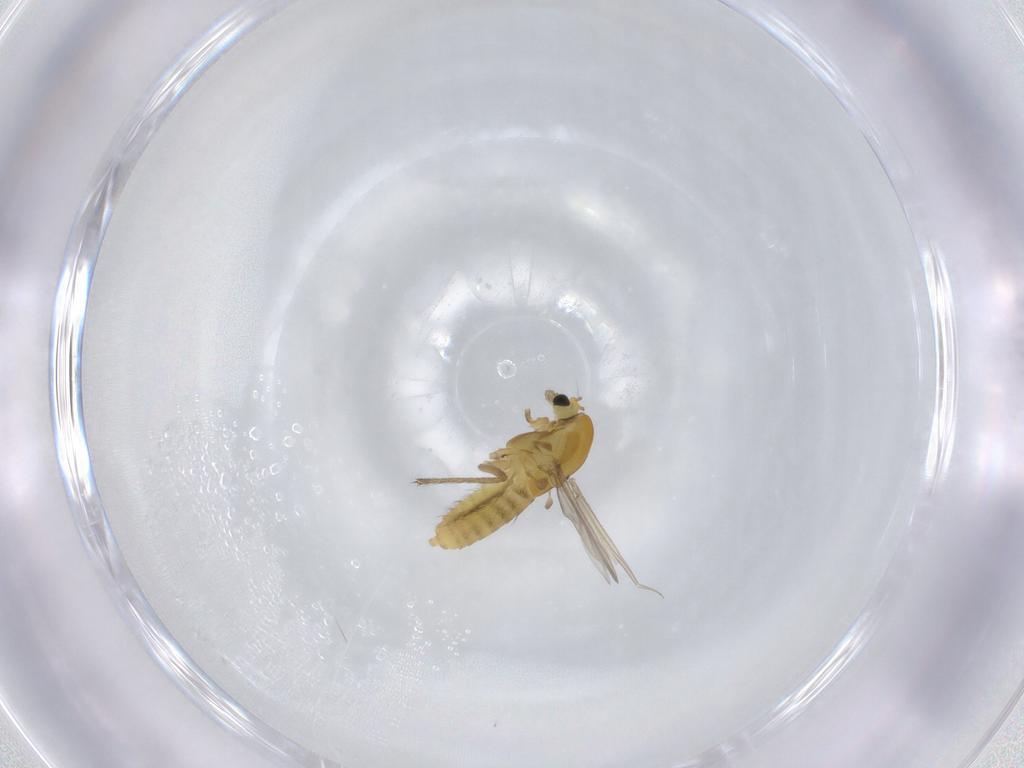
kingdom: Animalia
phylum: Arthropoda
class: Insecta
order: Diptera
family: Chironomidae
